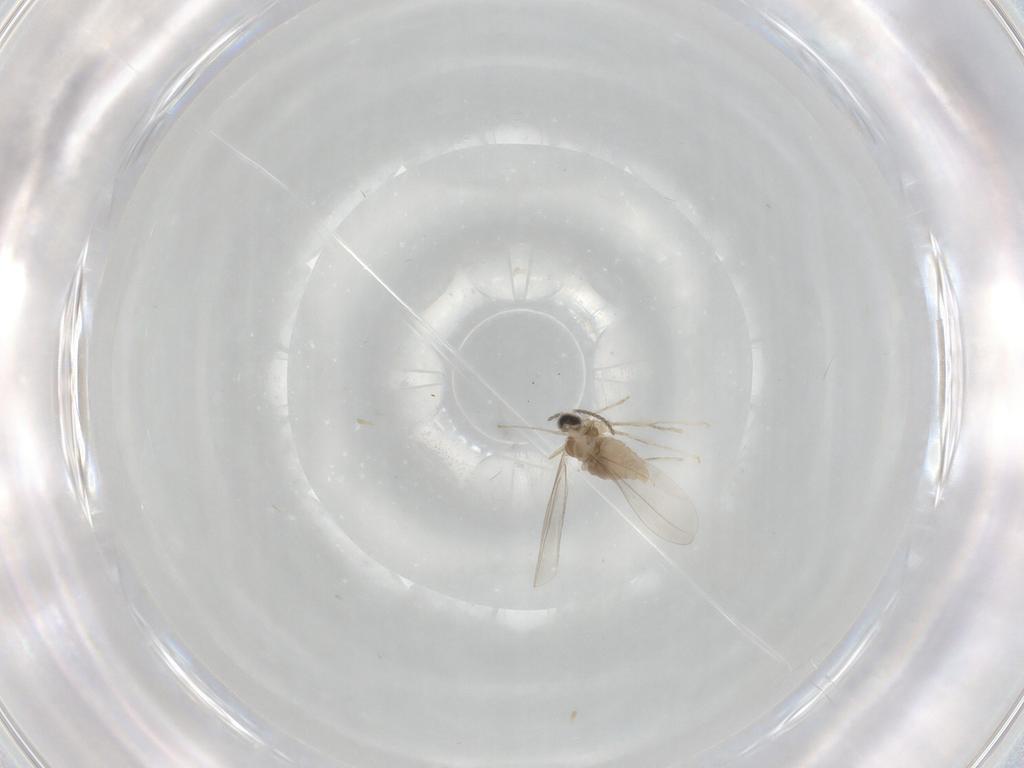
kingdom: Animalia
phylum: Arthropoda
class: Insecta
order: Diptera
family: Cecidomyiidae
